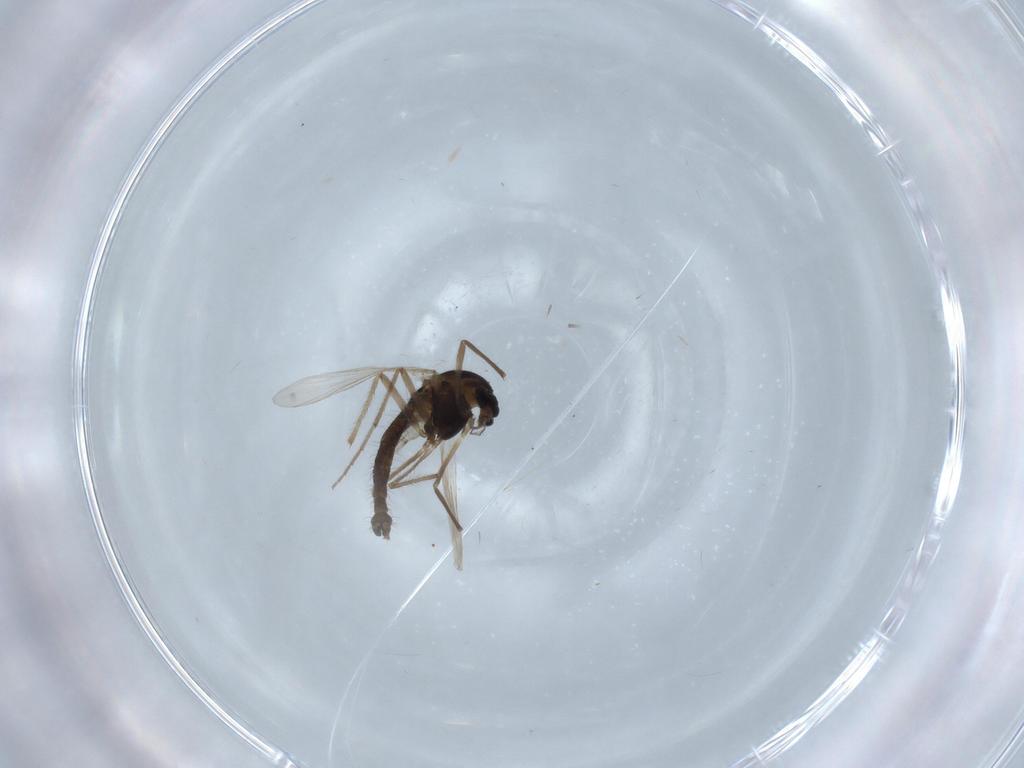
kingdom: Animalia
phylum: Arthropoda
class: Insecta
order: Diptera
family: Chironomidae
